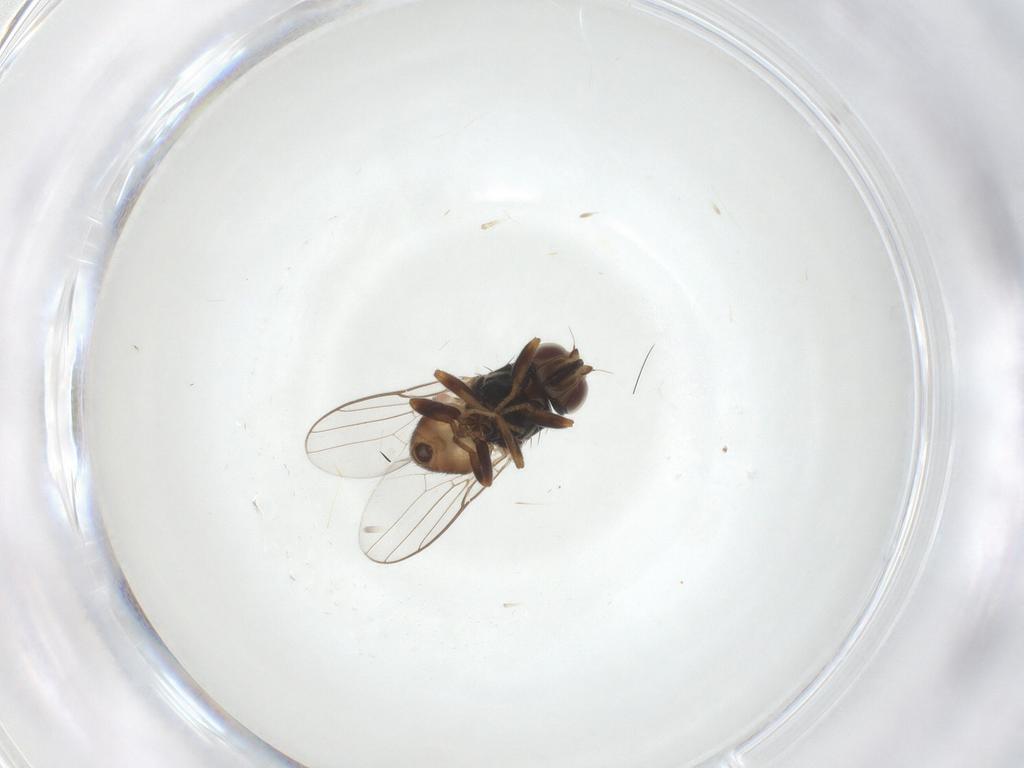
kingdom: Animalia
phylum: Arthropoda
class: Insecta
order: Diptera
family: Chloropidae
